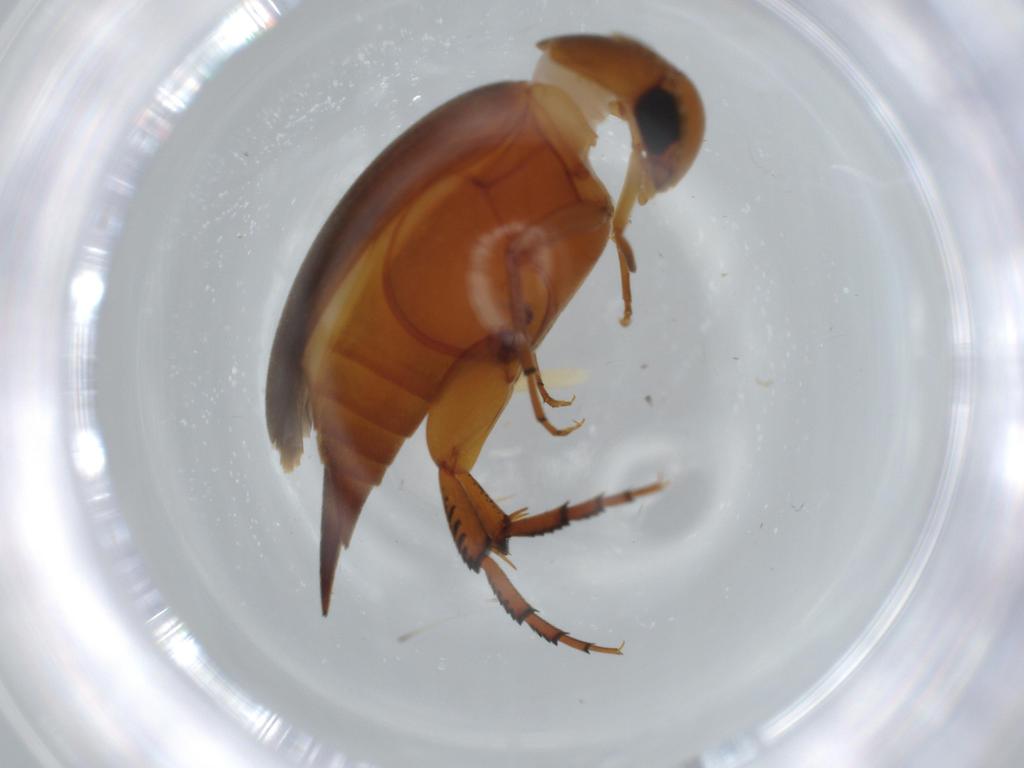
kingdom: Animalia
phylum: Arthropoda
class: Insecta
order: Coleoptera
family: Mordellidae
